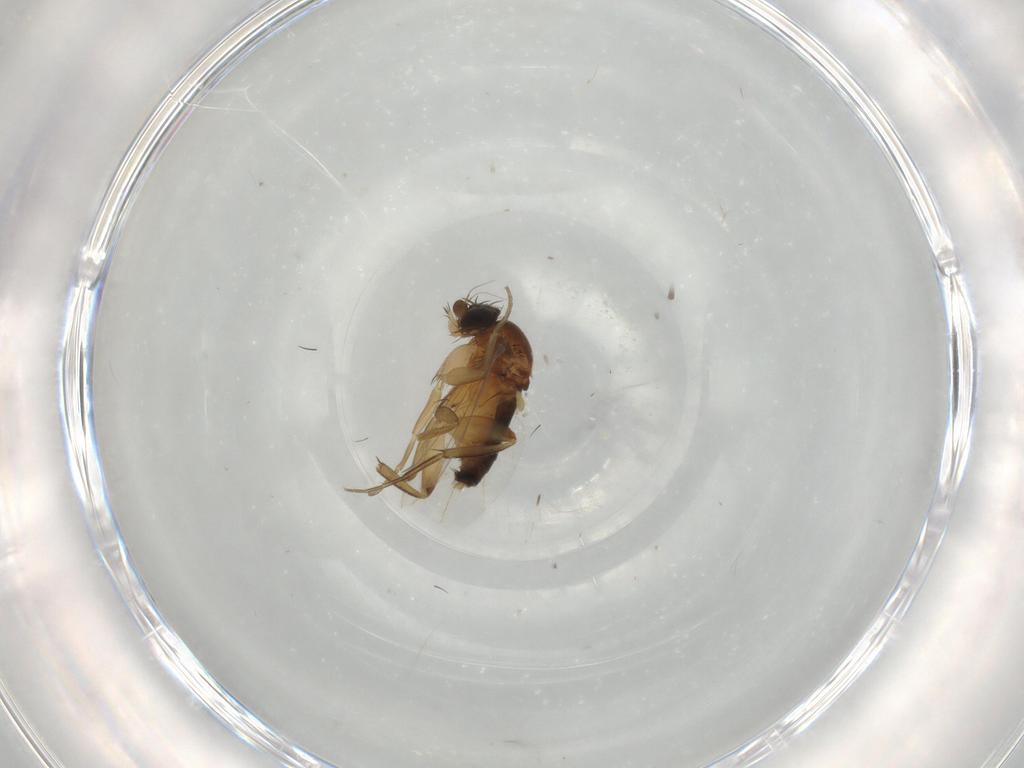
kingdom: Animalia
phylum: Arthropoda
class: Insecta
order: Diptera
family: Phoridae
